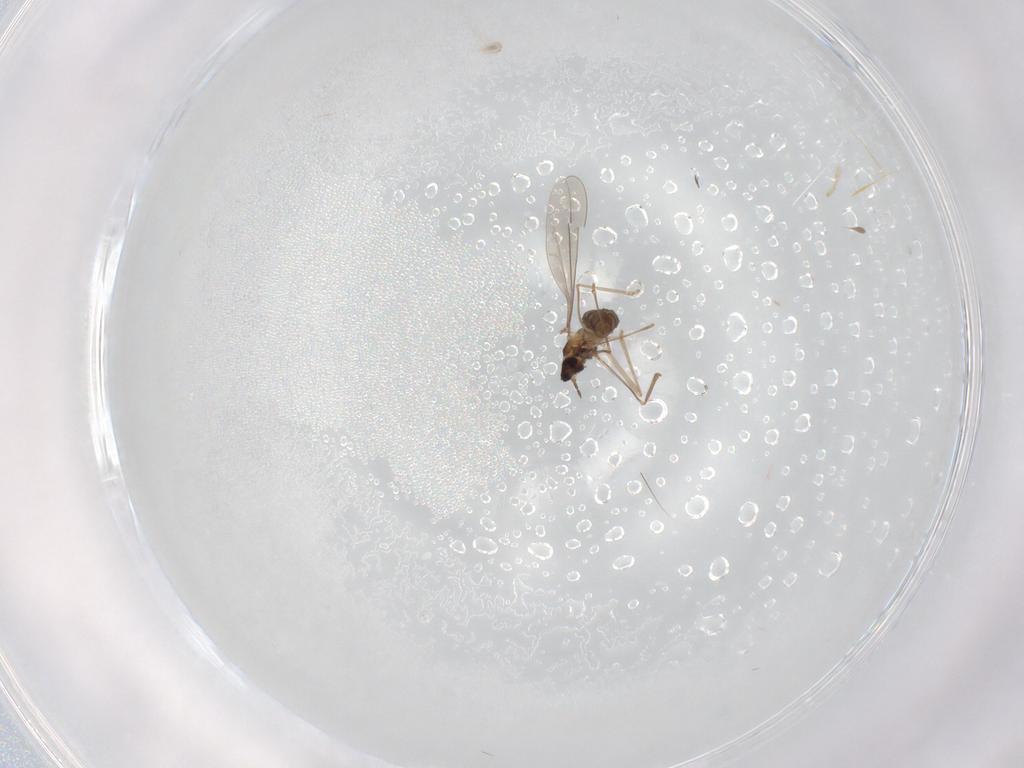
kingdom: Animalia
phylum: Arthropoda
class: Insecta
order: Diptera
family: Cecidomyiidae
